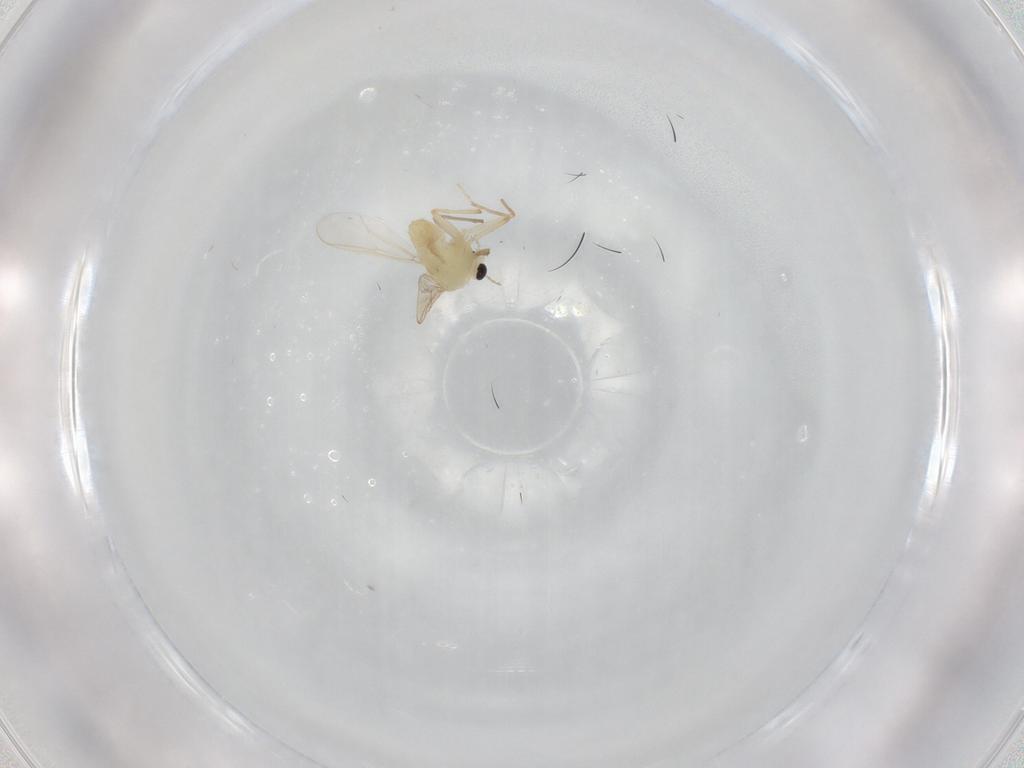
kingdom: Animalia
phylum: Arthropoda
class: Insecta
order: Diptera
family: Chironomidae
